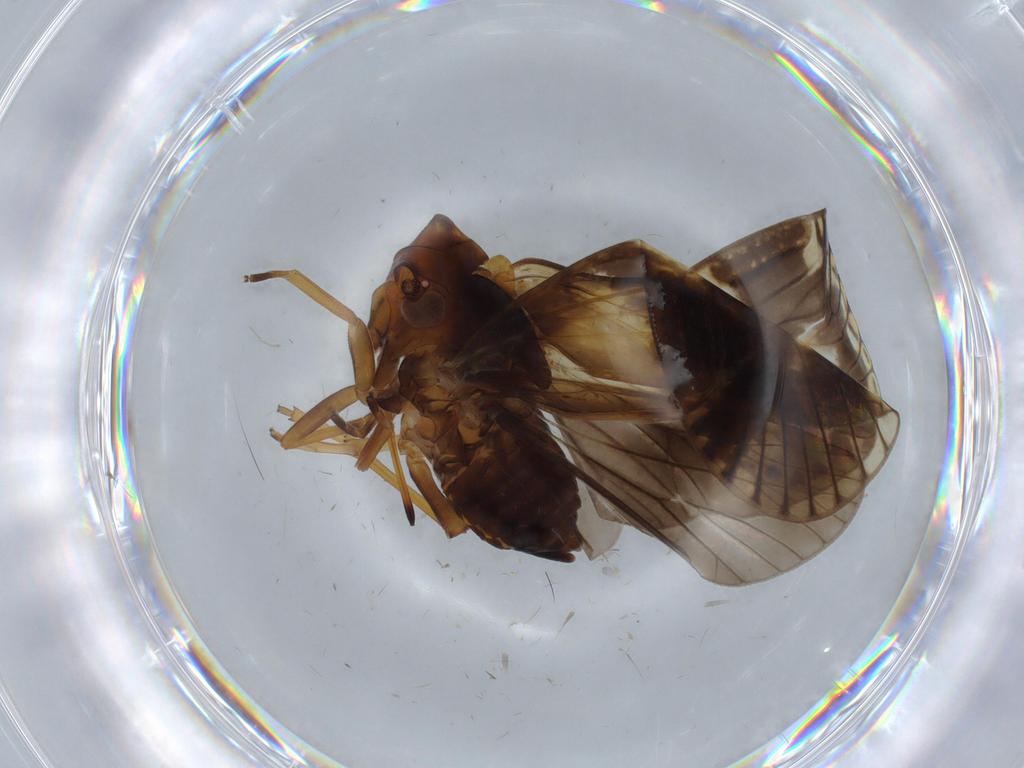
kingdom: Animalia
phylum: Arthropoda
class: Insecta
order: Hemiptera
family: Cixiidae
